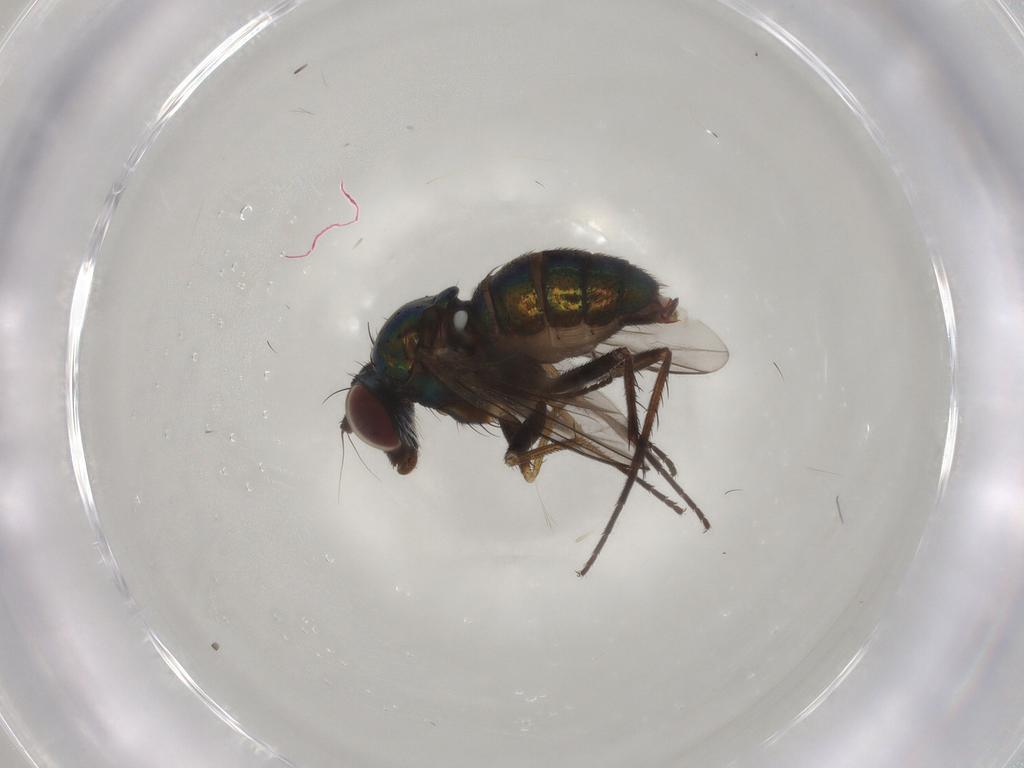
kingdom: Animalia
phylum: Arthropoda
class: Insecta
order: Diptera
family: Dolichopodidae
